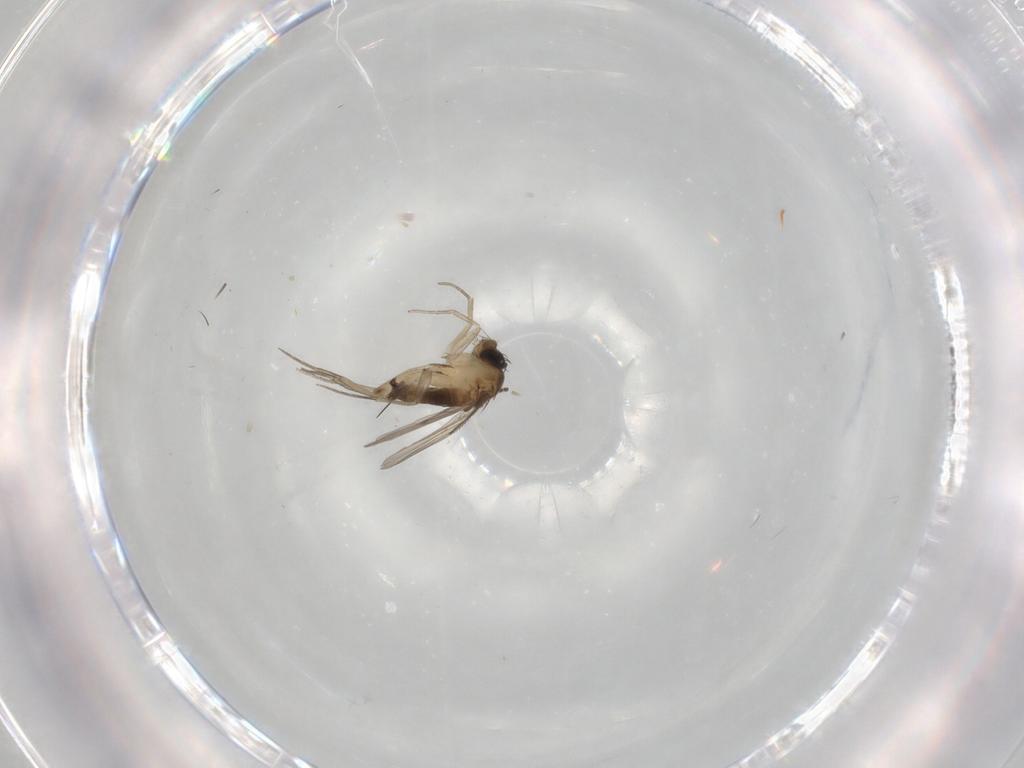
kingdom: Animalia
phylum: Arthropoda
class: Insecta
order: Diptera
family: Phoridae
